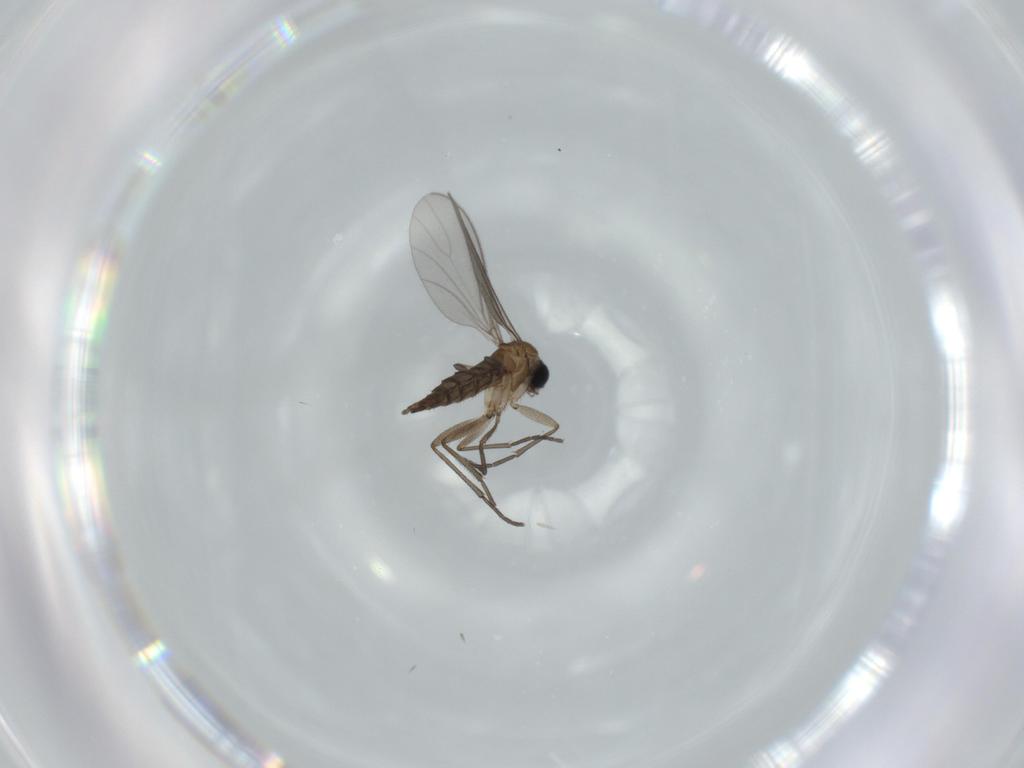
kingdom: Animalia
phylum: Arthropoda
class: Insecta
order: Diptera
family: Sciaridae
